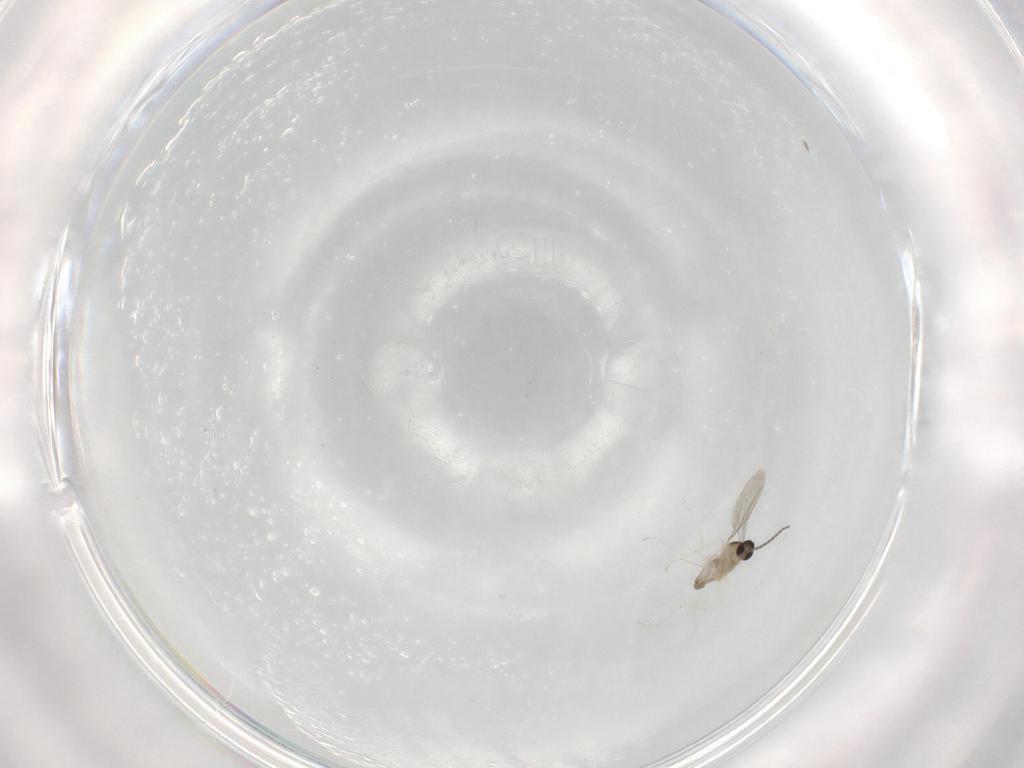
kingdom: Animalia
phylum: Arthropoda
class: Insecta
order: Diptera
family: Cecidomyiidae
